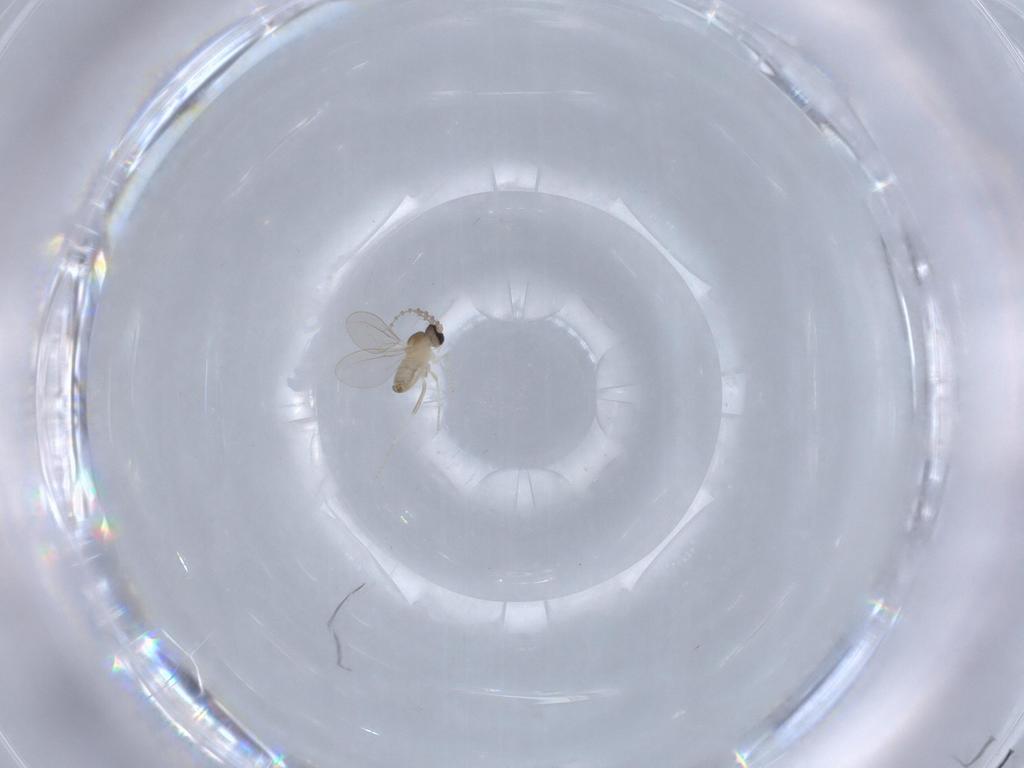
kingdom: Animalia
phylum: Arthropoda
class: Insecta
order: Diptera
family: Cecidomyiidae
